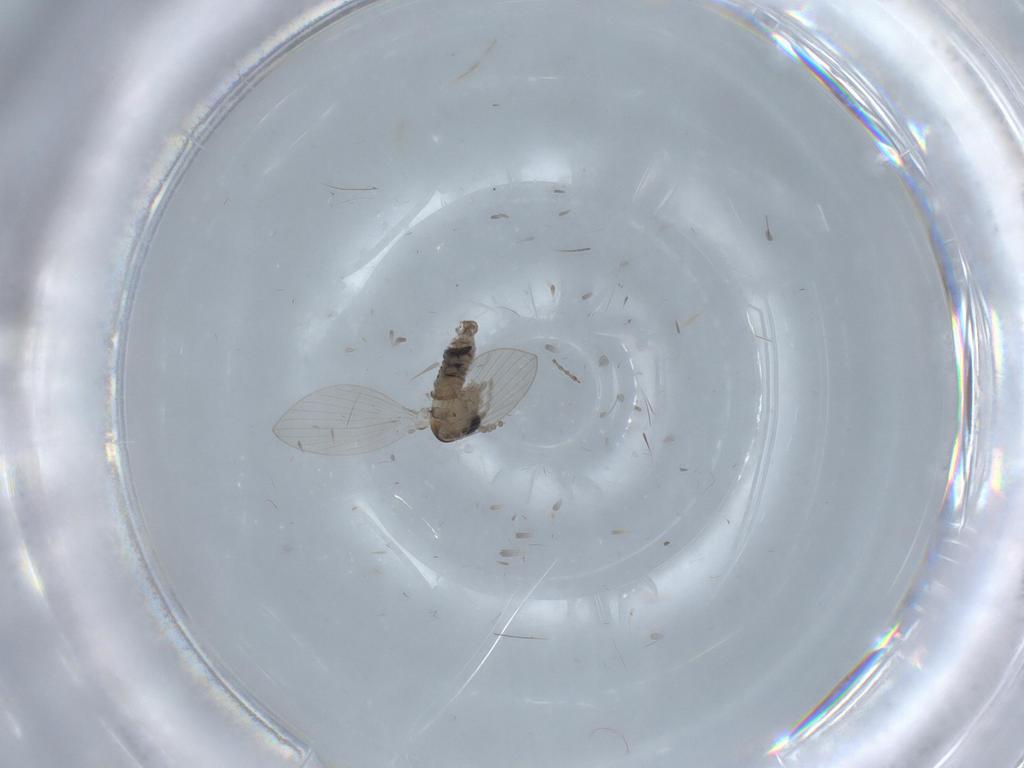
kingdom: Animalia
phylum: Arthropoda
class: Insecta
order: Diptera
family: Psychodidae
